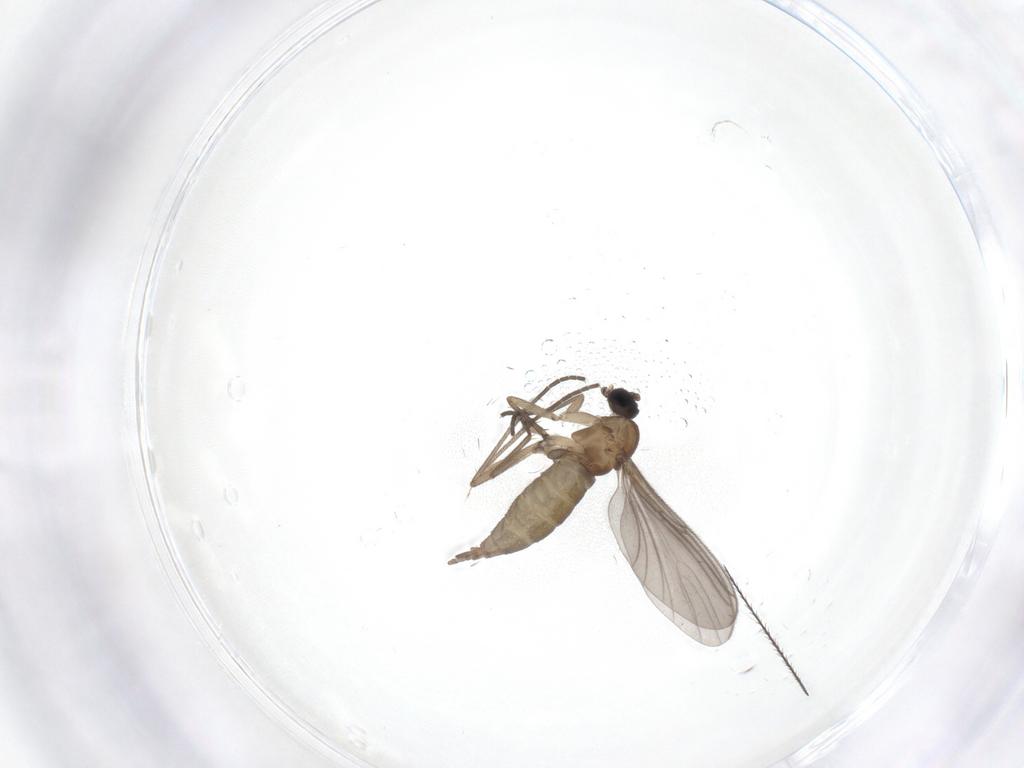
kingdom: Animalia
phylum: Arthropoda
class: Insecta
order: Diptera
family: Sciaridae
